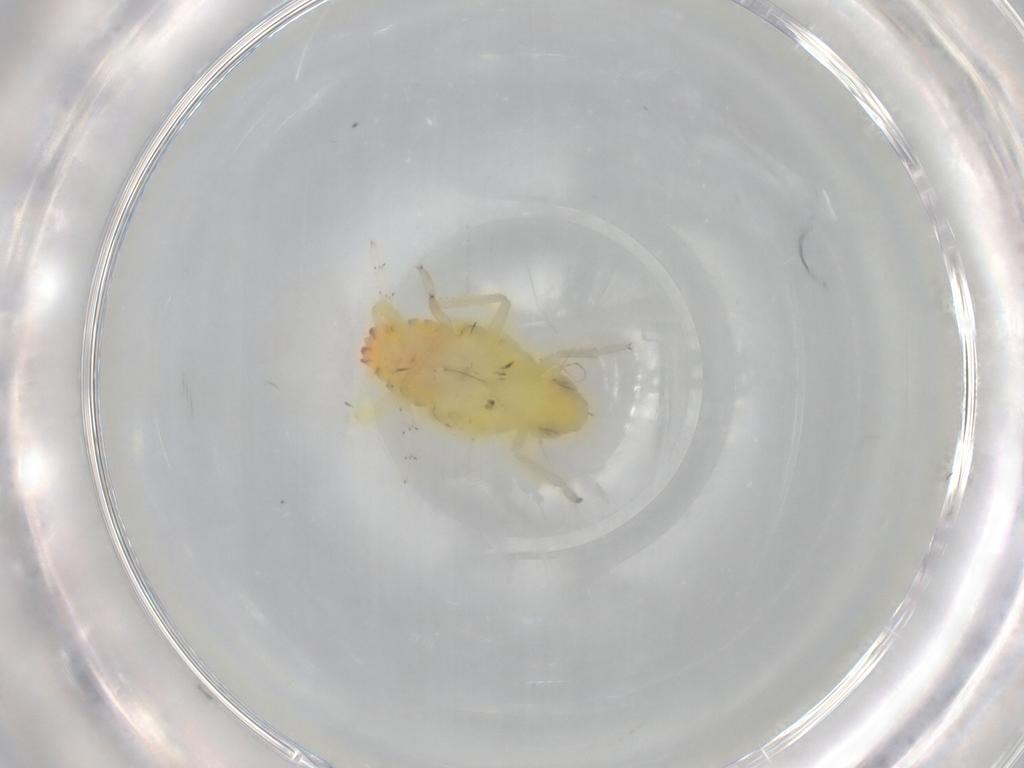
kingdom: Animalia
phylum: Arthropoda
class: Insecta
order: Hemiptera
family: Tropiduchidae
